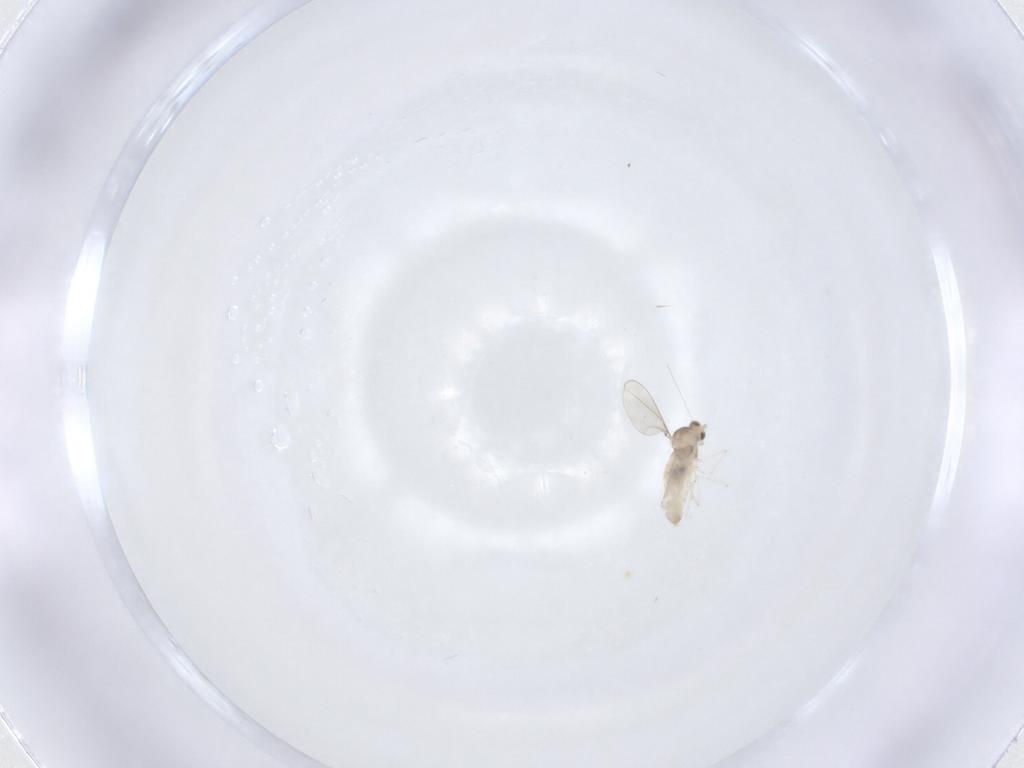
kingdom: Animalia
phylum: Arthropoda
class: Insecta
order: Diptera
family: Cecidomyiidae
